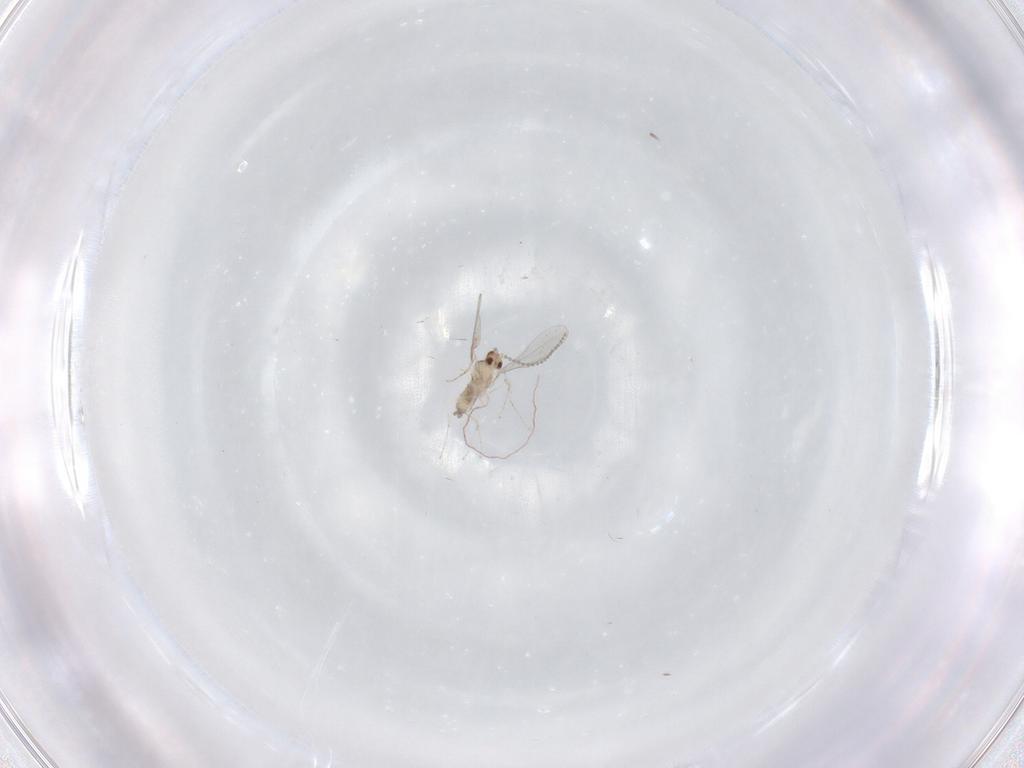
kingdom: Animalia
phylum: Arthropoda
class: Insecta
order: Diptera
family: Cecidomyiidae
